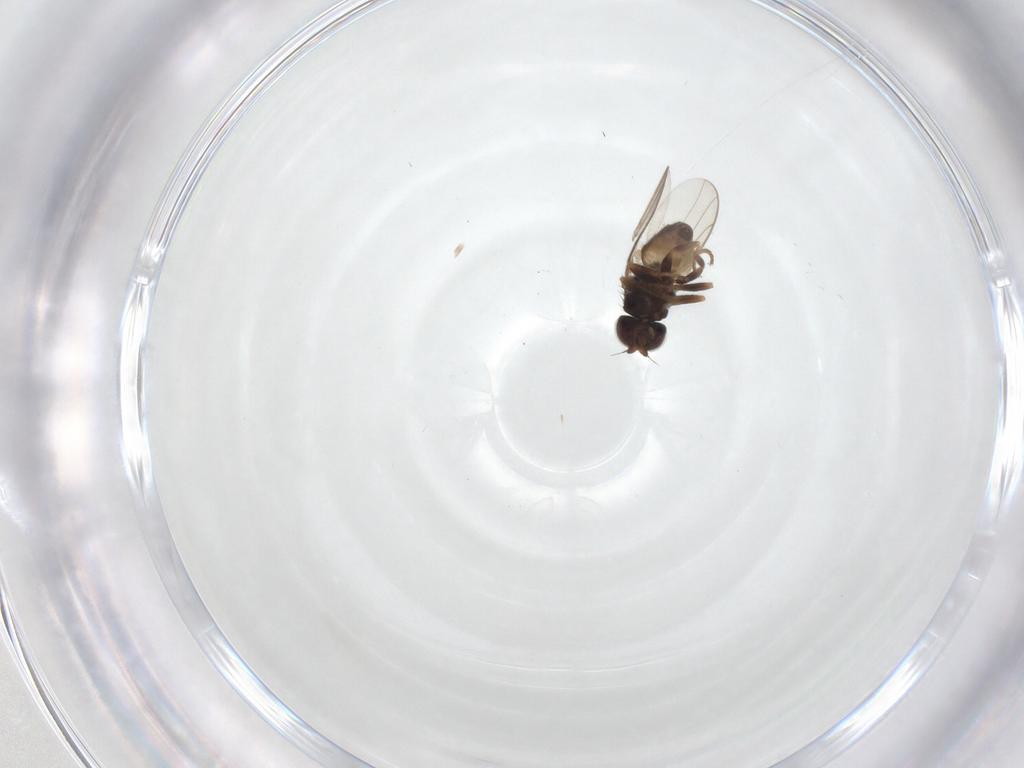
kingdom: Animalia
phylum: Arthropoda
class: Insecta
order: Diptera
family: Chloropidae
